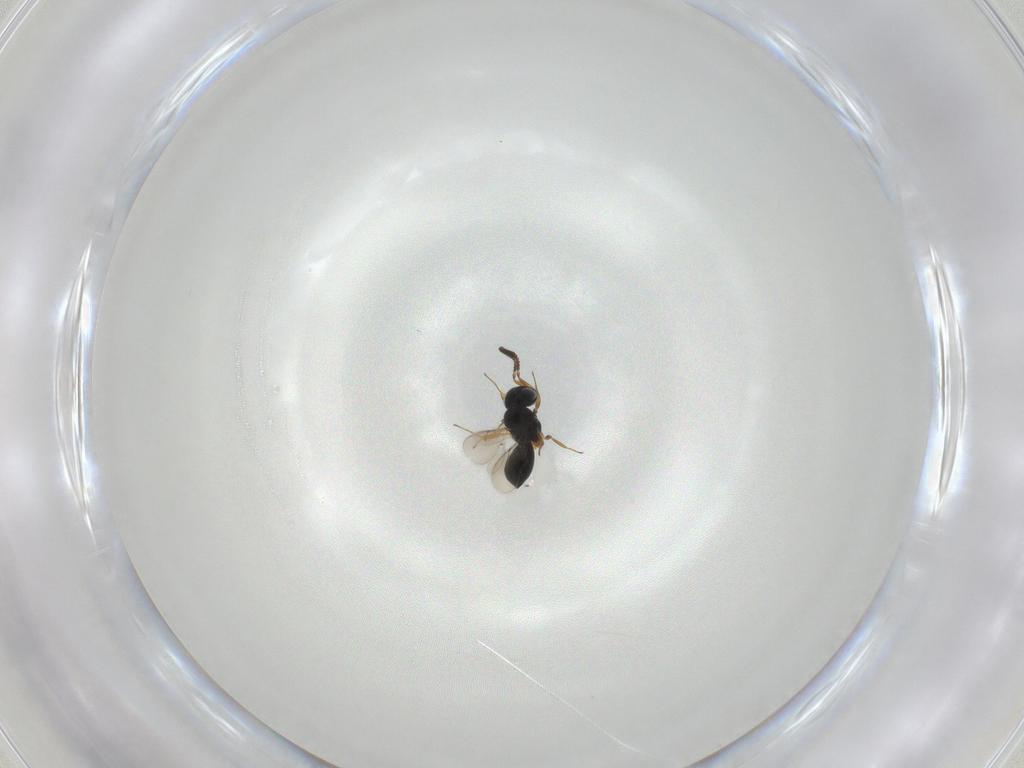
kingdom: Animalia
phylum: Arthropoda
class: Insecta
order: Hymenoptera
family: Scelionidae
